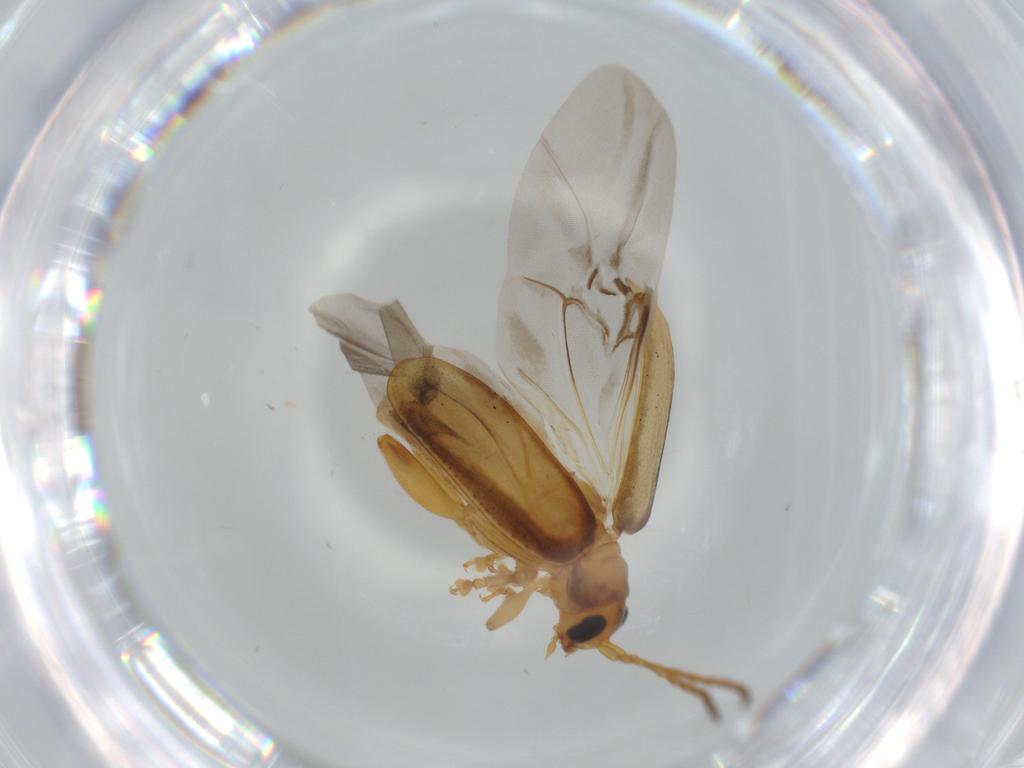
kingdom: Animalia
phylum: Arthropoda
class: Insecta
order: Coleoptera
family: Chrysomelidae
